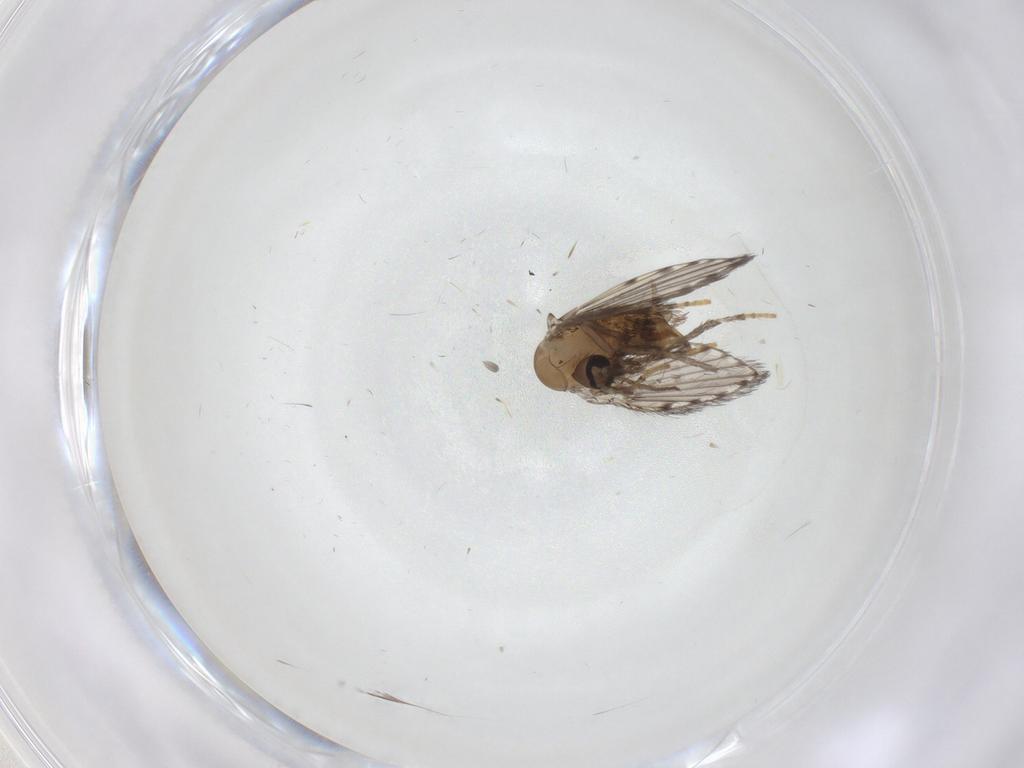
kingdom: Animalia
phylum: Arthropoda
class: Insecta
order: Diptera
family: Psychodidae
